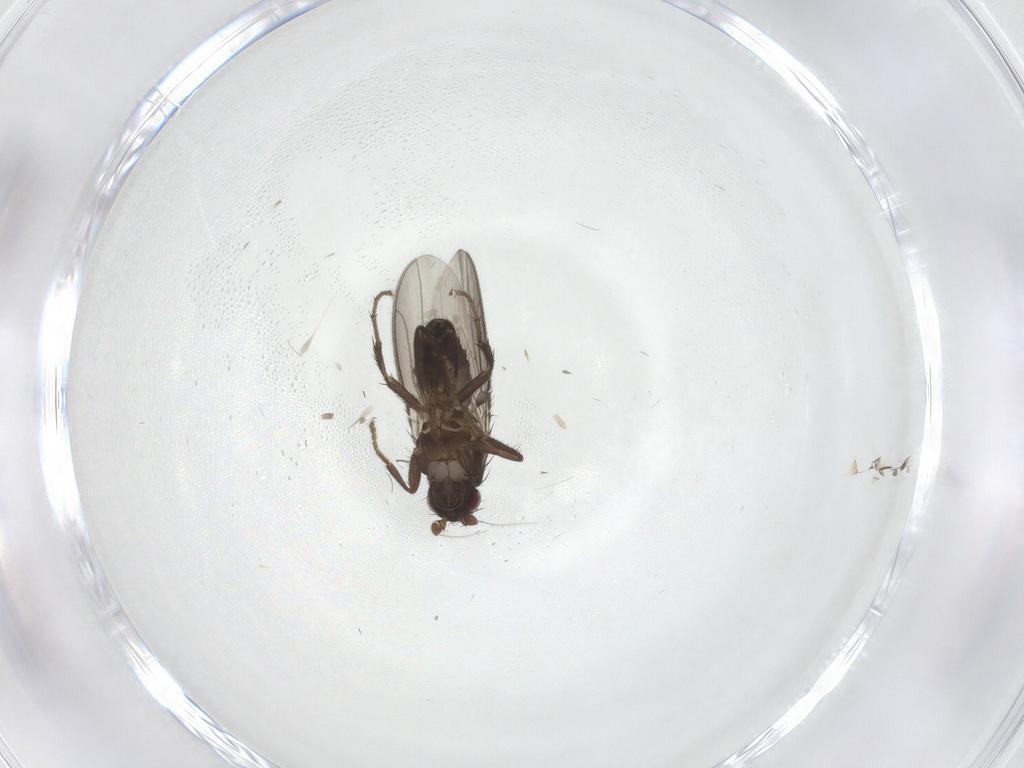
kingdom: Animalia
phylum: Arthropoda
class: Insecta
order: Diptera
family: Sphaeroceridae
